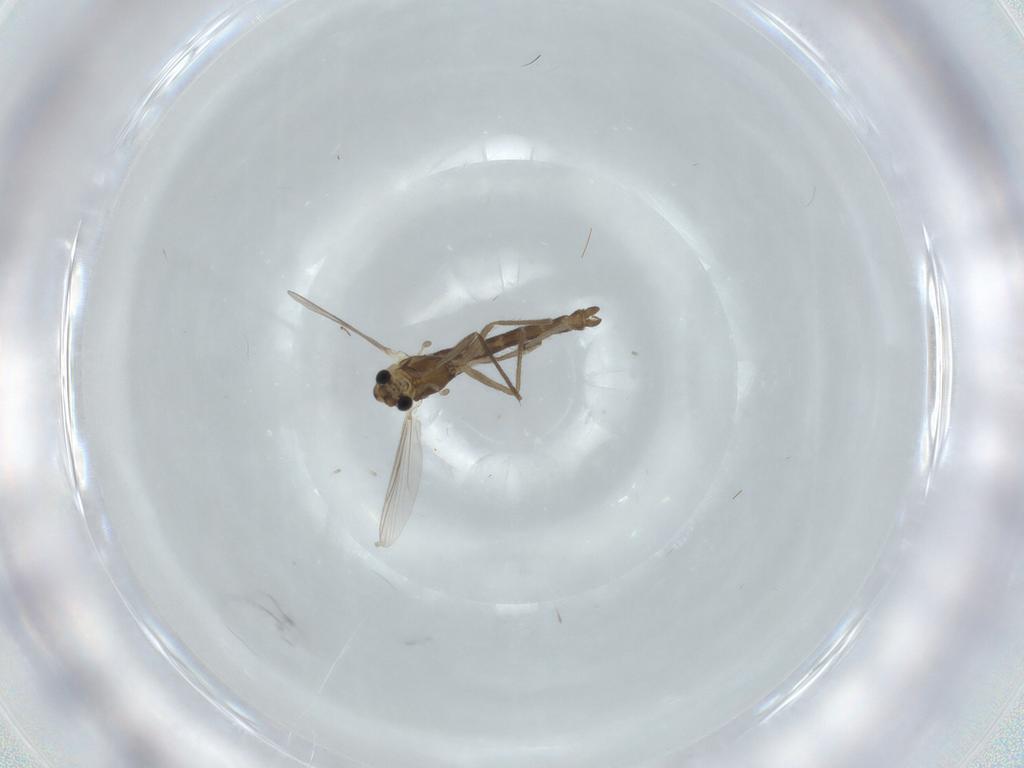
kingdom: Animalia
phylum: Arthropoda
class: Insecta
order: Diptera
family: Chironomidae
